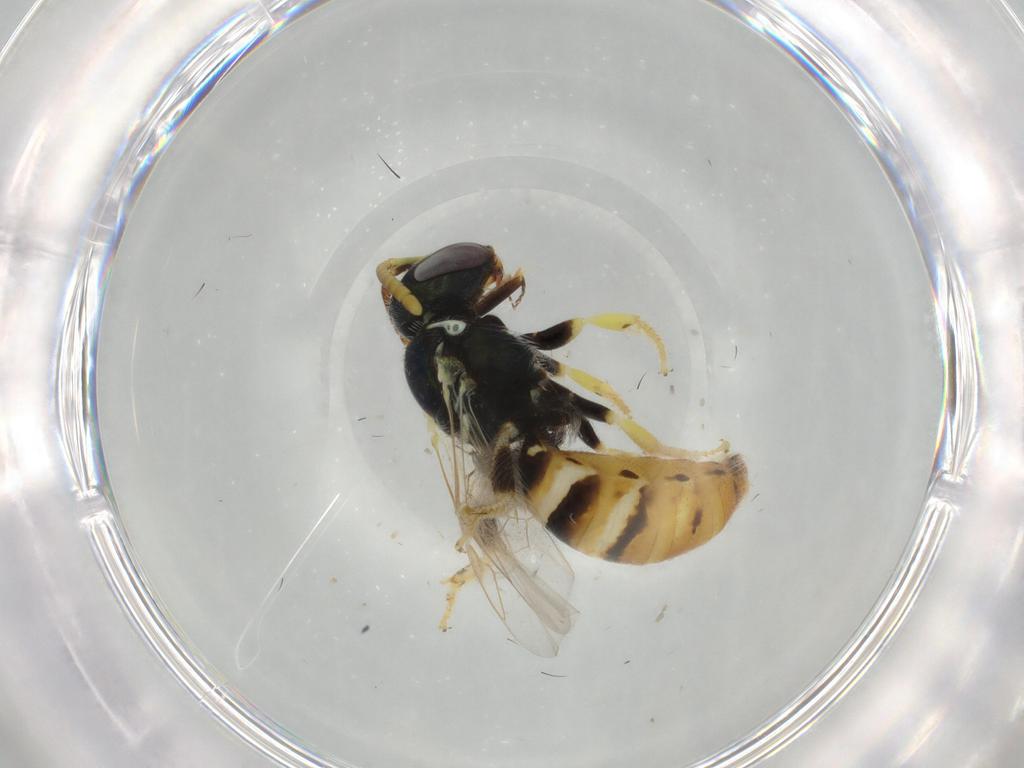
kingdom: Animalia
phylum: Arthropoda
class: Insecta
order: Hymenoptera
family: Scelionidae
